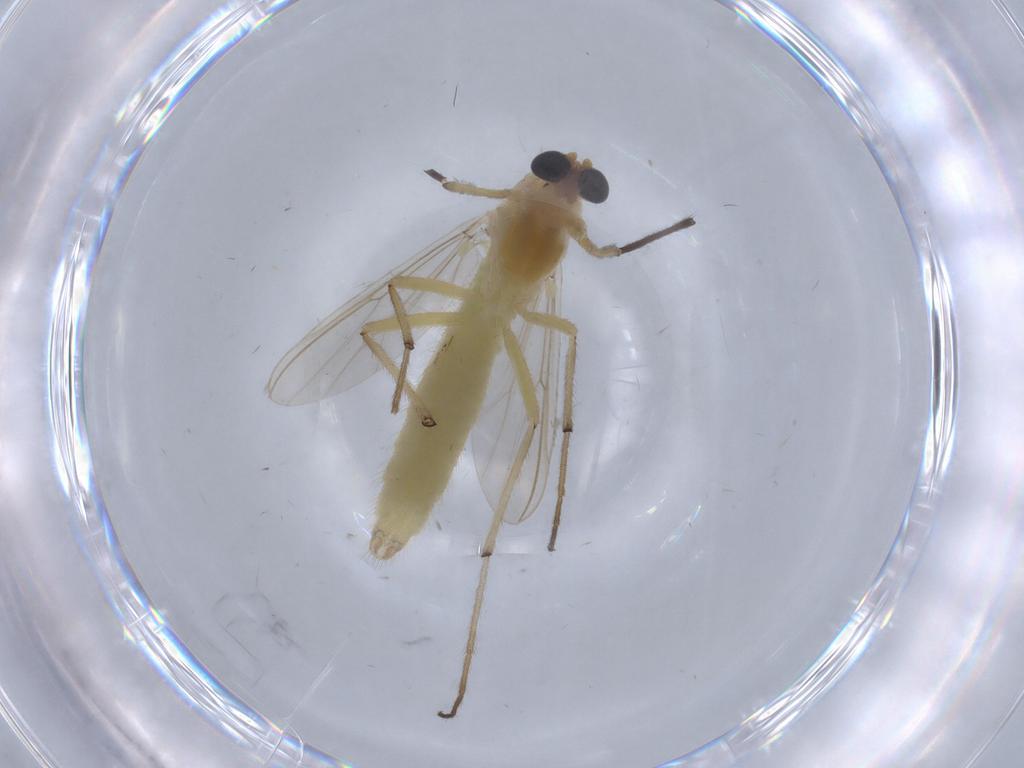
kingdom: Animalia
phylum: Arthropoda
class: Insecta
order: Diptera
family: Chironomidae
